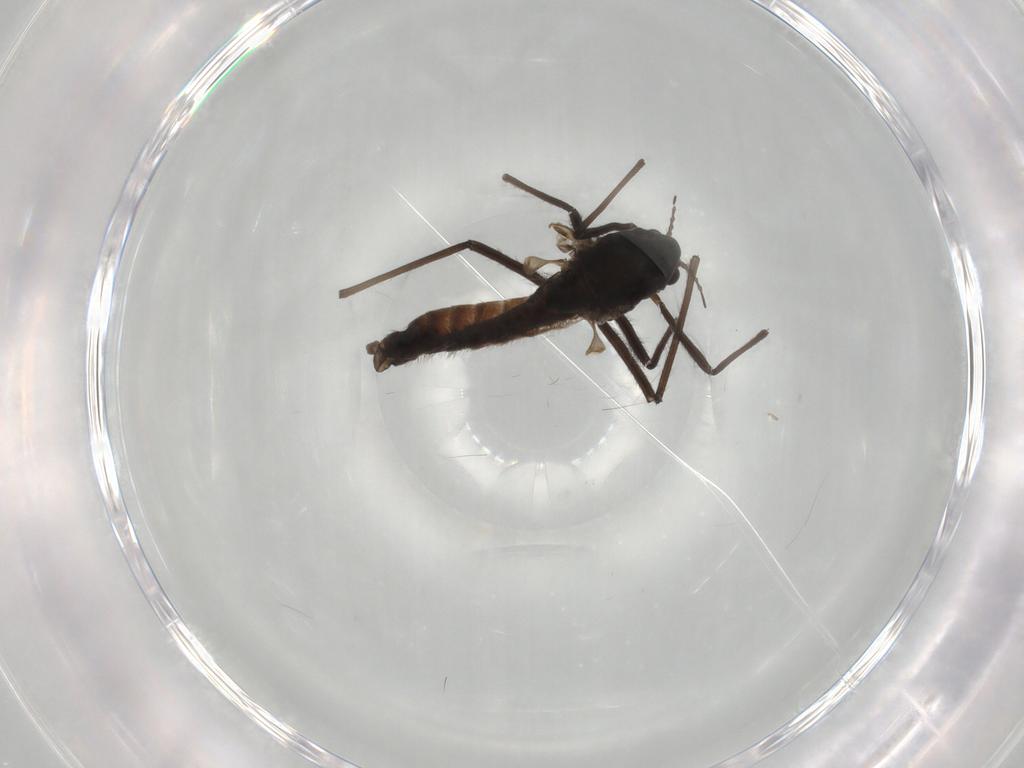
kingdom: Animalia
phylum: Arthropoda
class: Insecta
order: Diptera
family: Chironomidae
